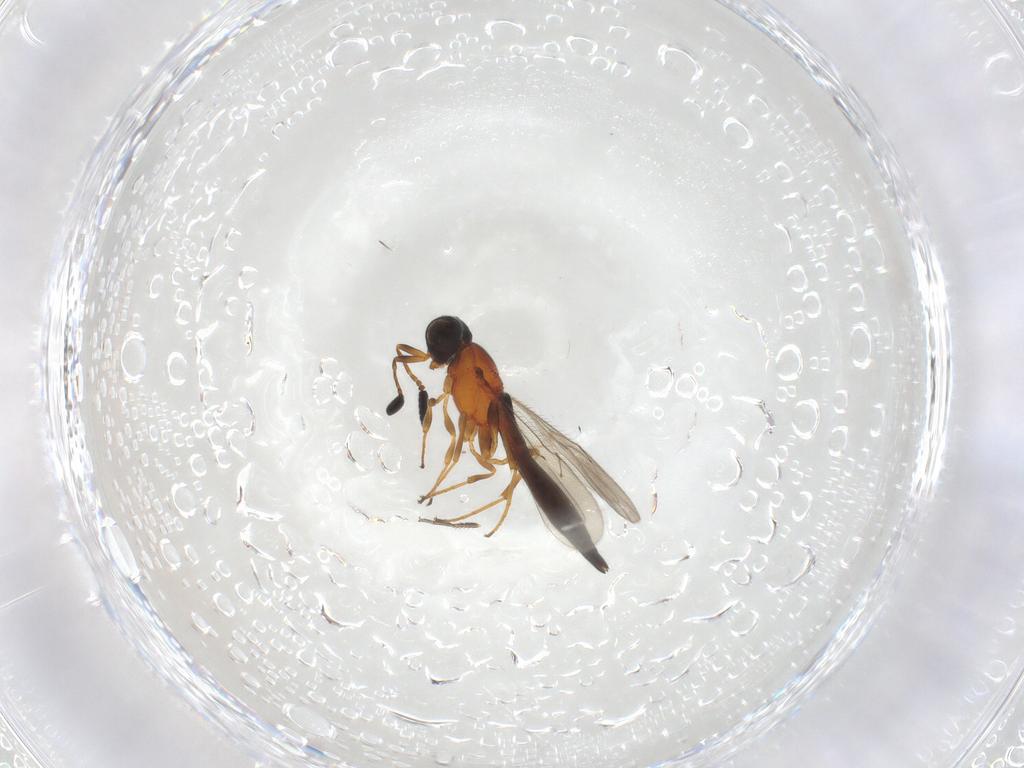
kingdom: Animalia
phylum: Arthropoda
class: Insecta
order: Hymenoptera
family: Scelionidae
